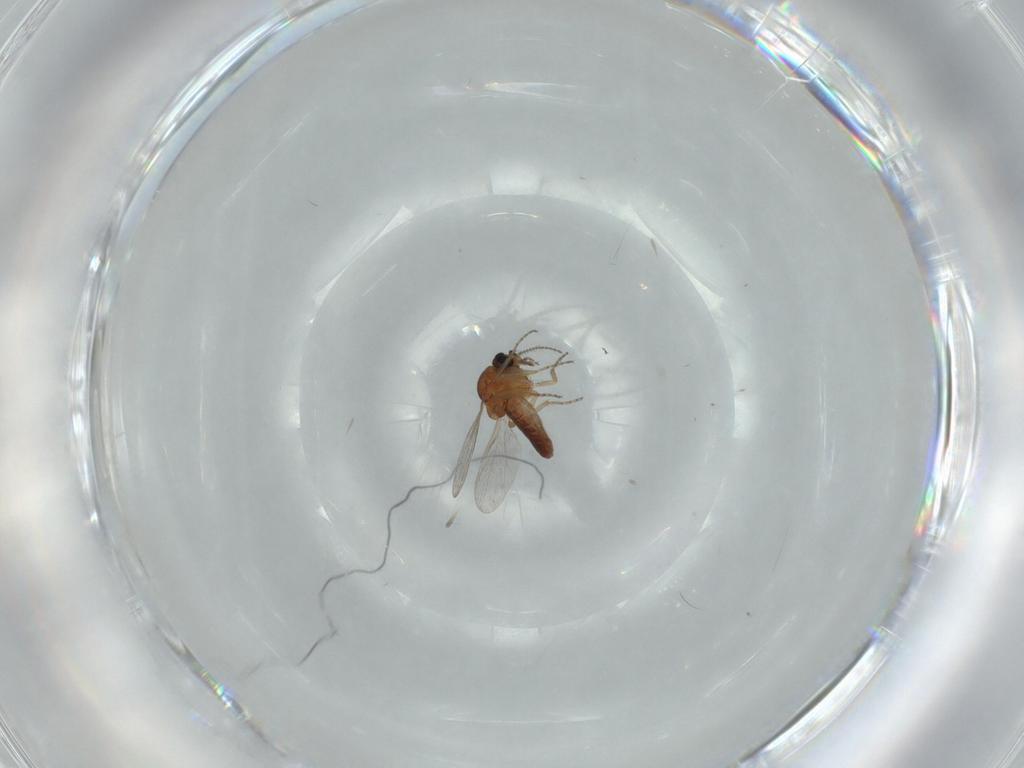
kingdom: Animalia
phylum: Arthropoda
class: Insecta
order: Diptera
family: Ceratopogonidae
